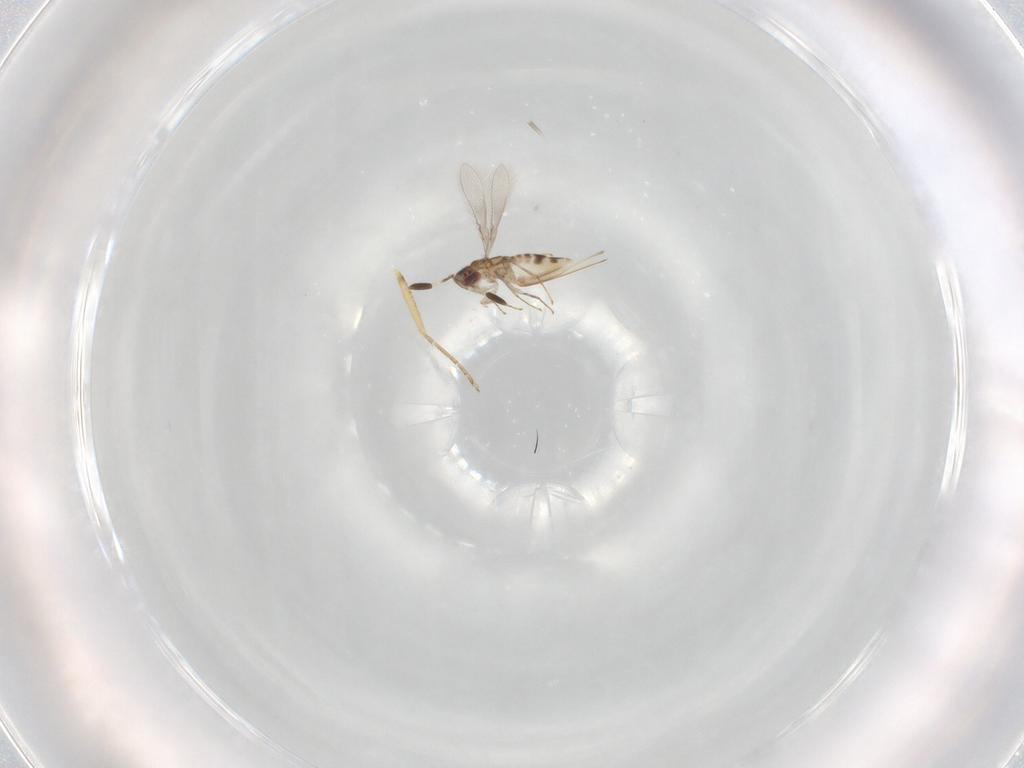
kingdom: Animalia
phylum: Arthropoda
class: Insecta
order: Hymenoptera
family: Mymaridae
